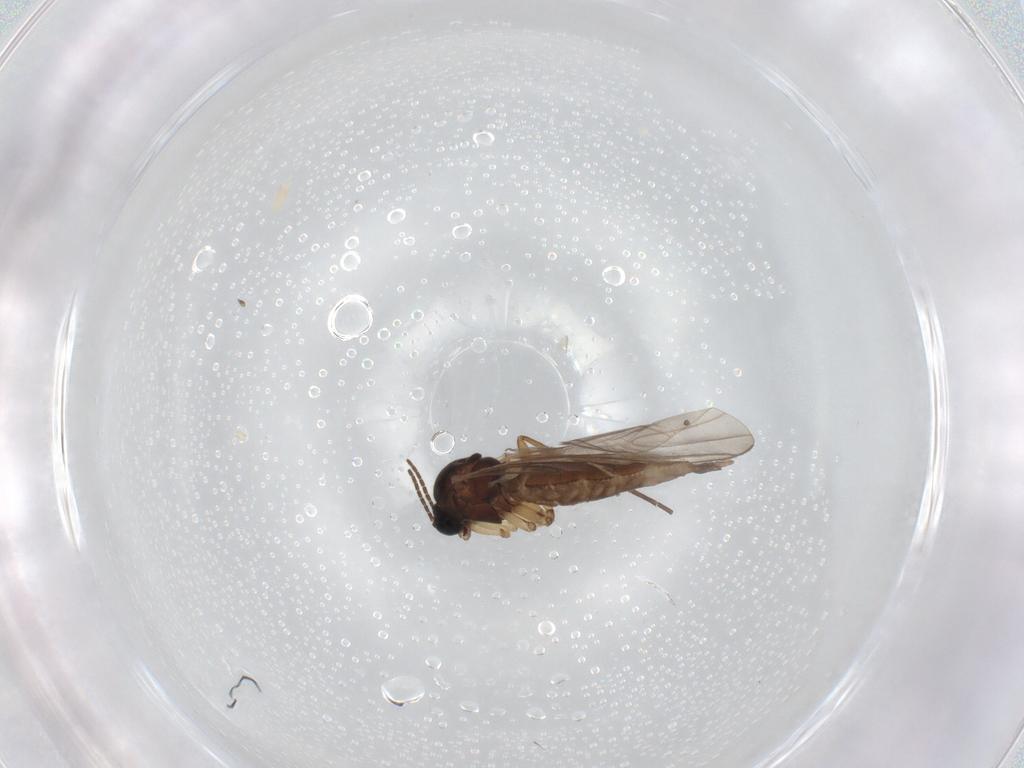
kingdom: Animalia
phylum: Arthropoda
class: Insecta
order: Diptera
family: Sciaridae
